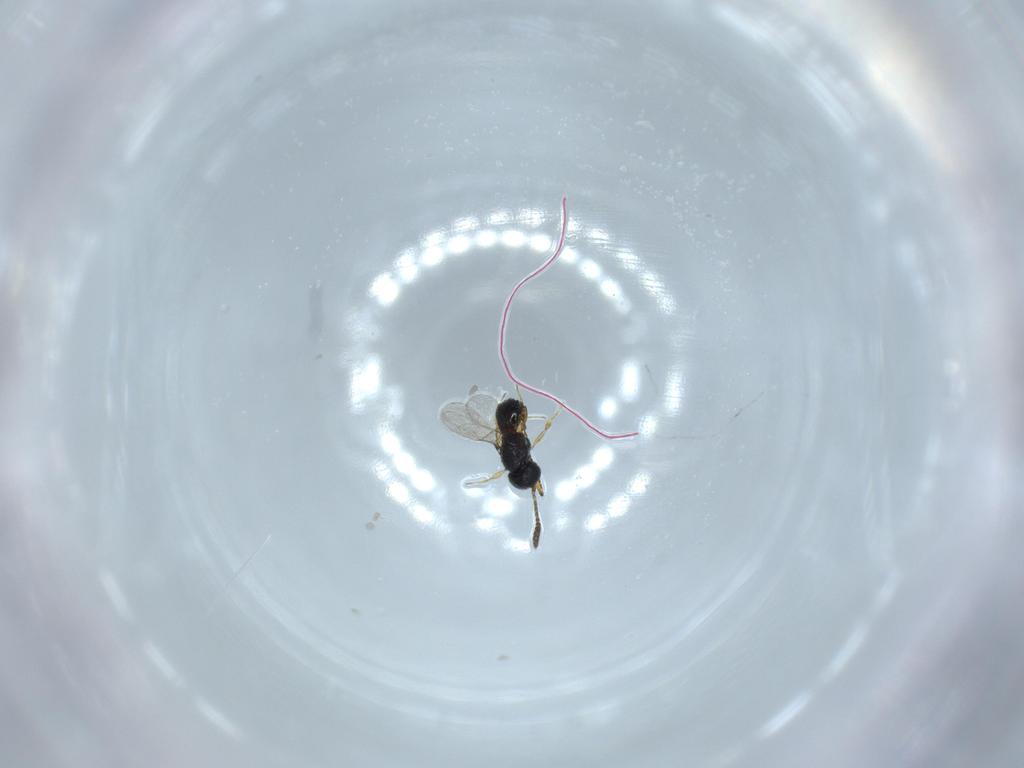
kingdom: Animalia
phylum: Arthropoda
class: Insecta
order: Hymenoptera
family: Scelionidae
